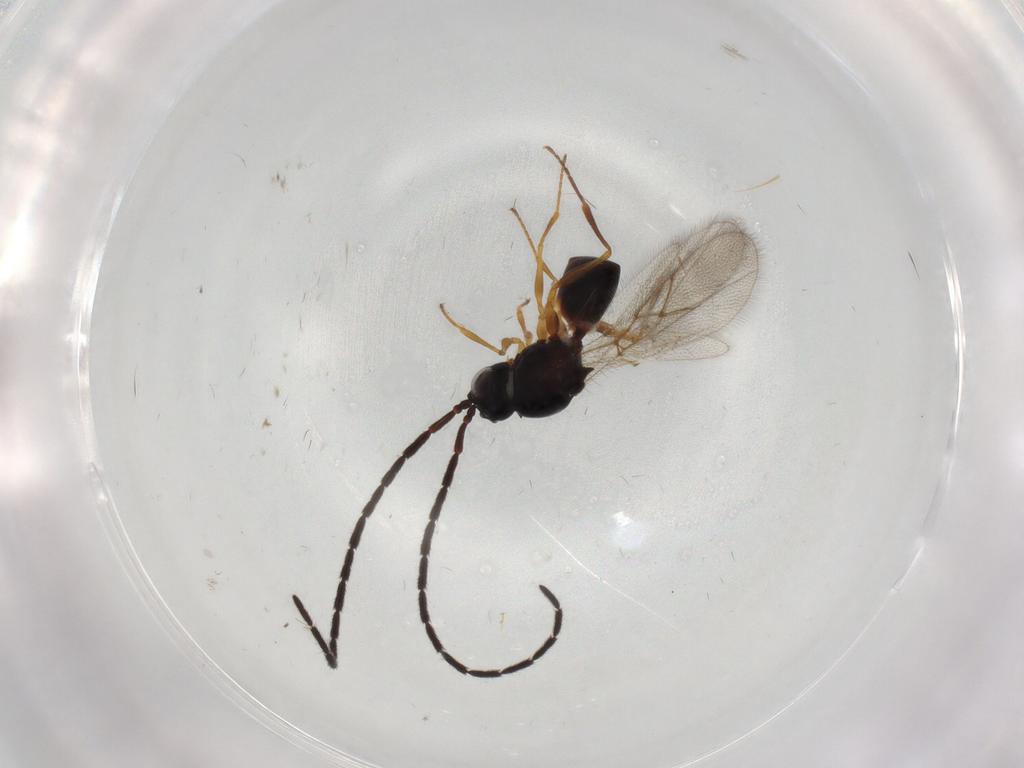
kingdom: Animalia
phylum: Arthropoda
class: Insecta
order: Hymenoptera
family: Figitidae
